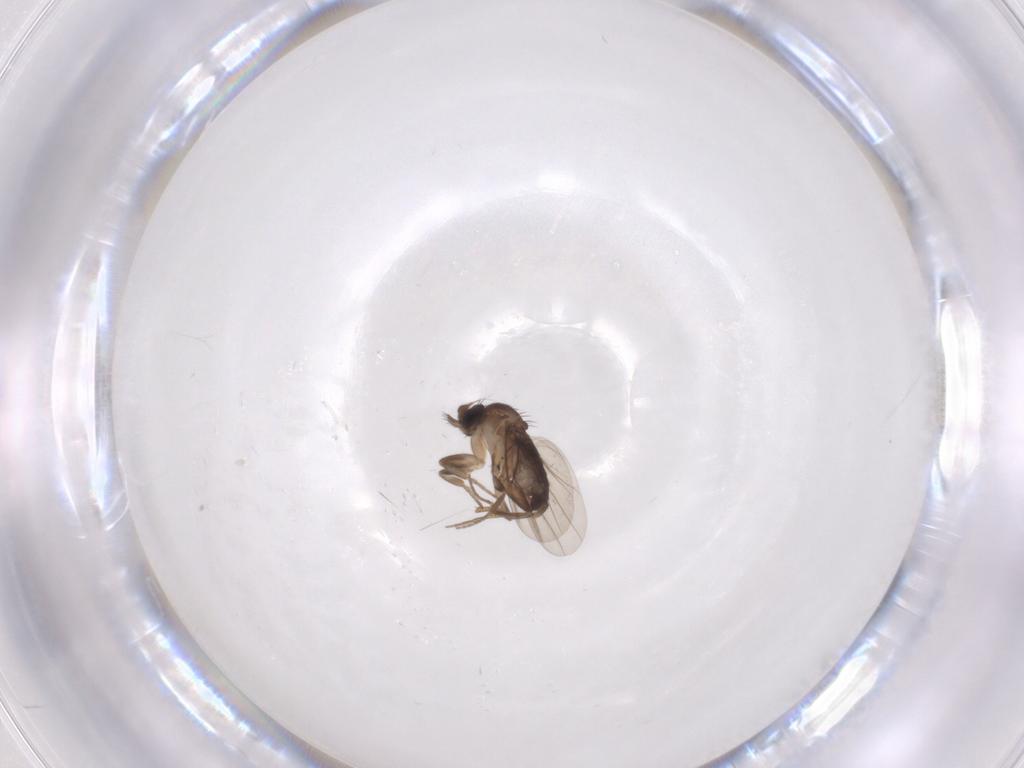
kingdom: Animalia
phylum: Arthropoda
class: Insecta
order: Diptera
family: Phoridae
